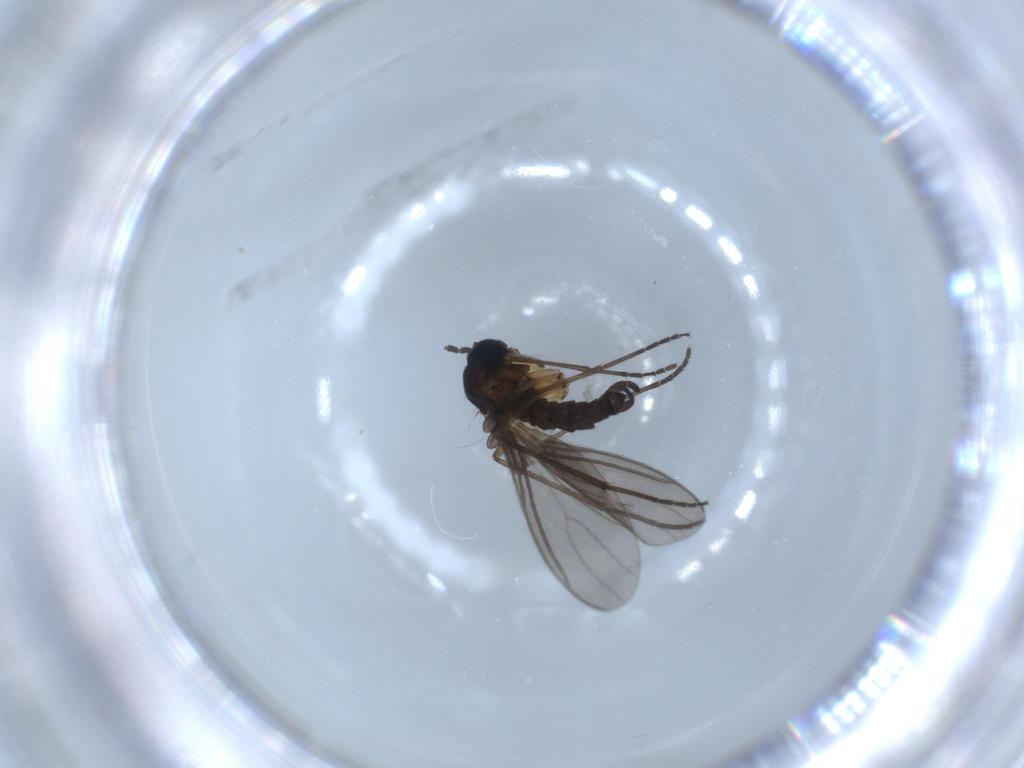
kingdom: Animalia
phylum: Arthropoda
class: Insecta
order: Diptera
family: Sciaridae
